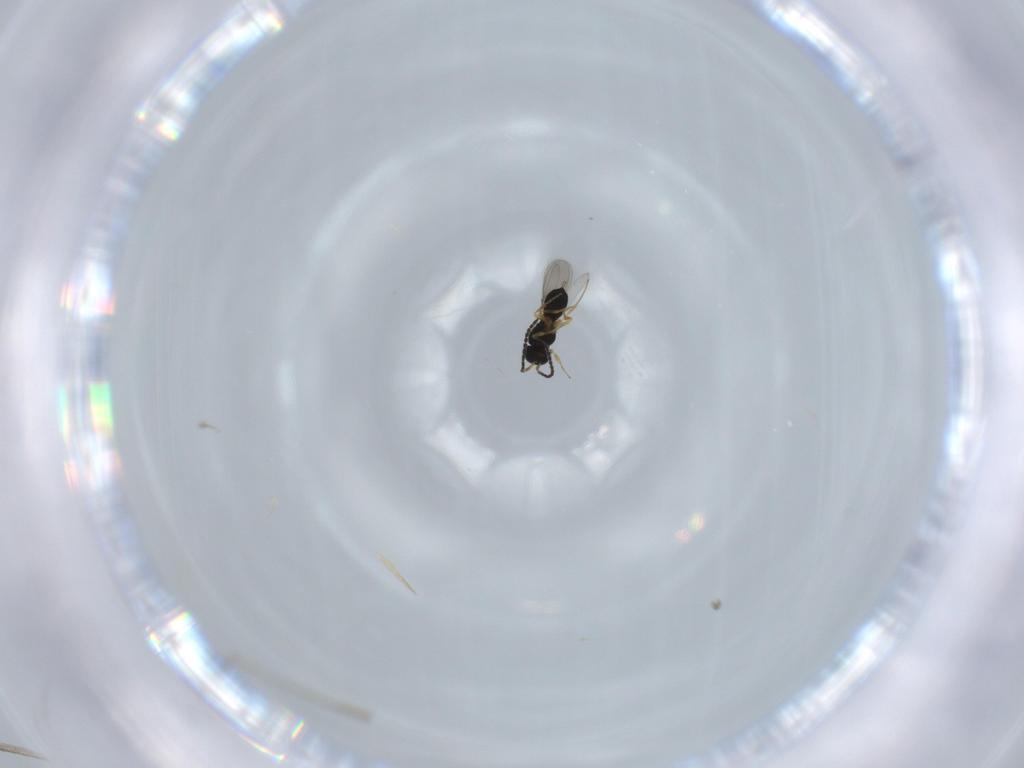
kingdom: Animalia
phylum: Arthropoda
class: Insecta
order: Hymenoptera
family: Scelionidae
